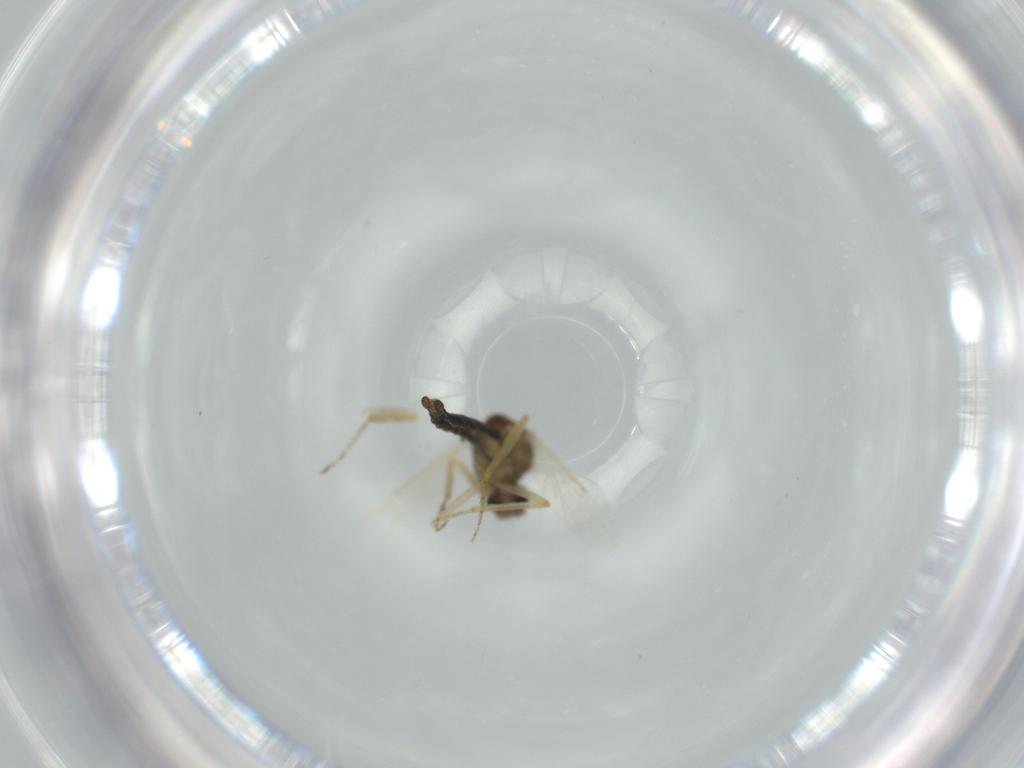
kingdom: Animalia
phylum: Arthropoda
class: Insecta
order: Diptera
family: Ceratopogonidae
